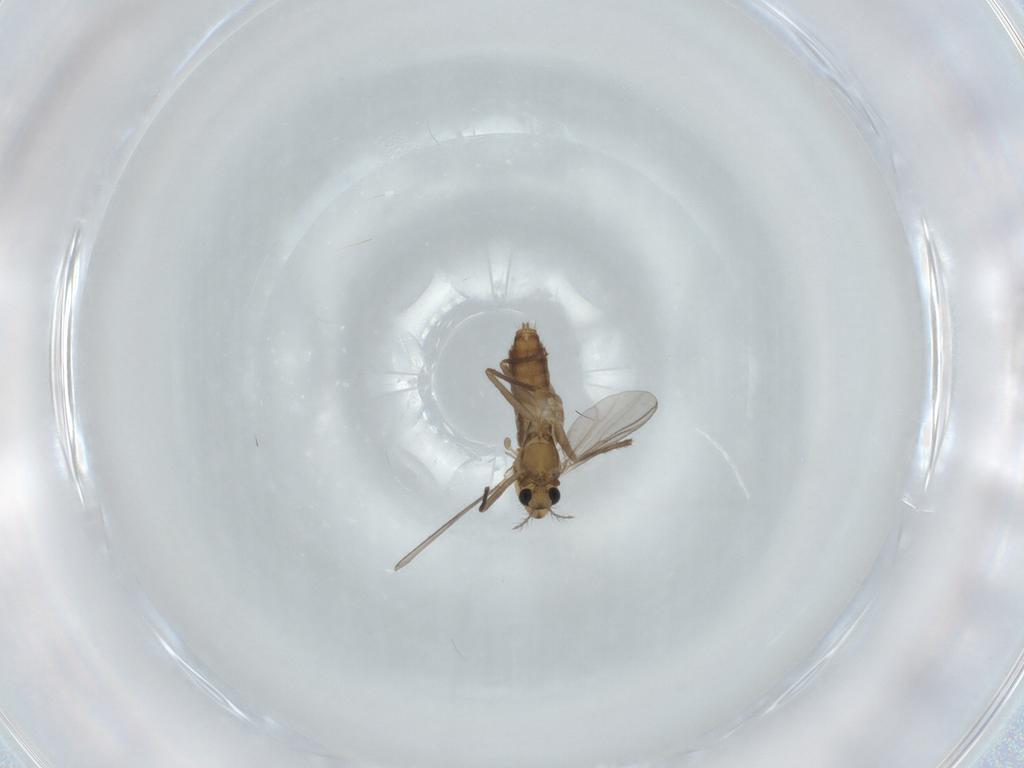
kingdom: Animalia
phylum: Arthropoda
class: Insecta
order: Diptera
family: Chironomidae
